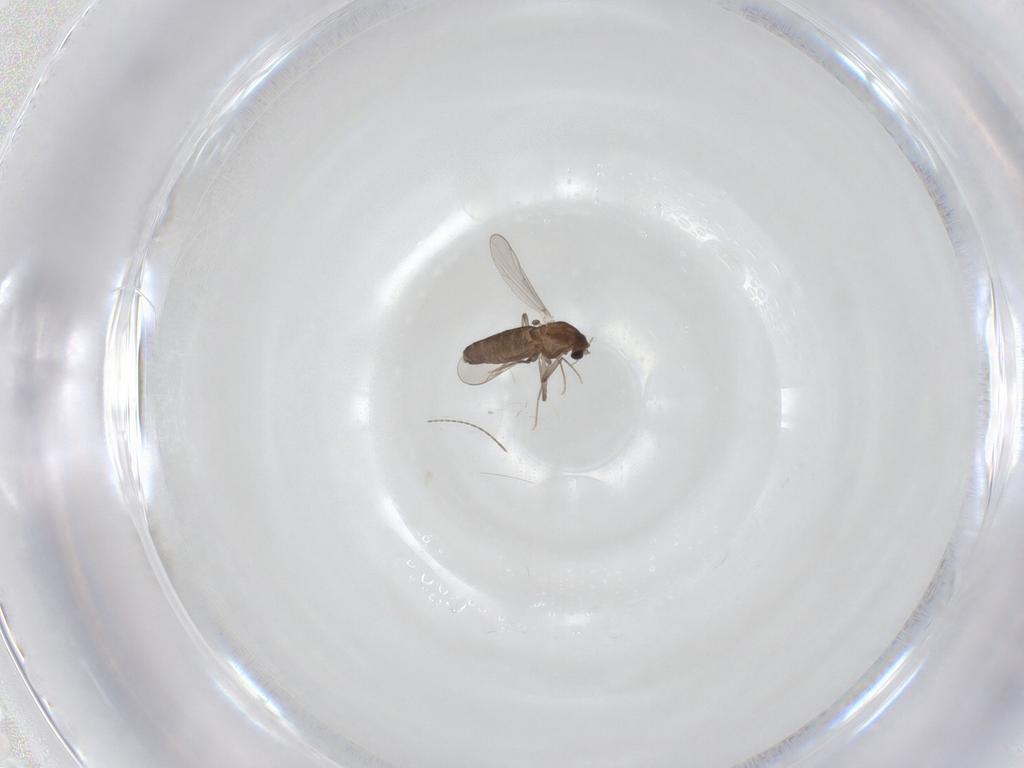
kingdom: Animalia
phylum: Arthropoda
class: Insecta
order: Diptera
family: Chironomidae
